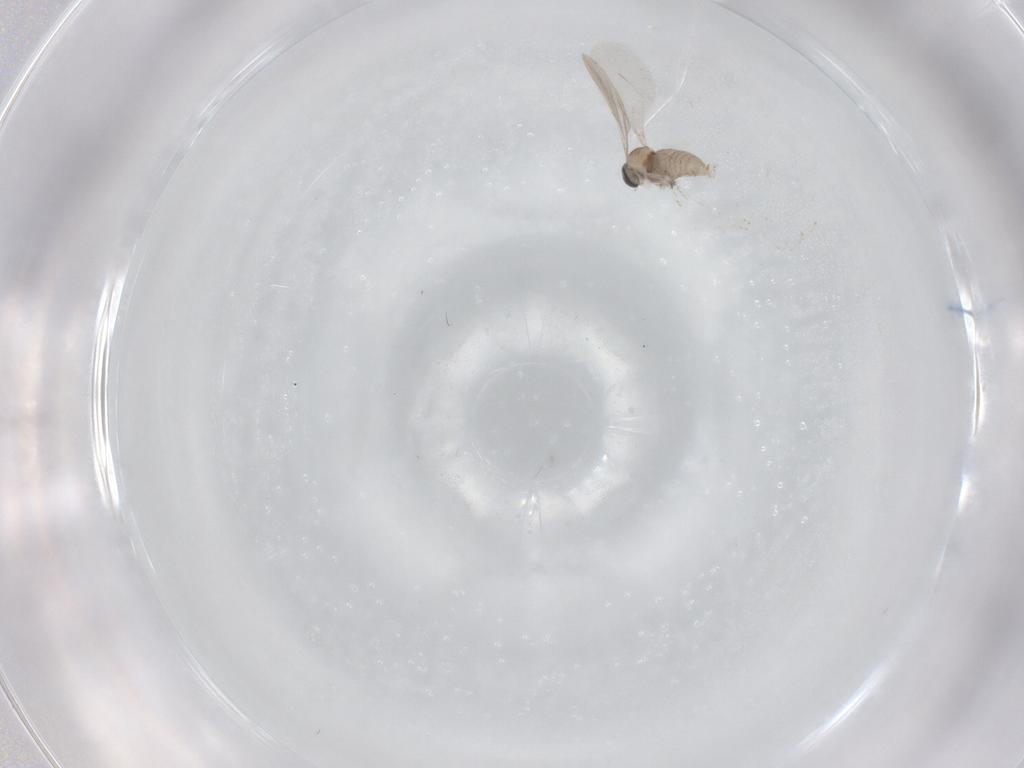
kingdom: Animalia
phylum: Arthropoda
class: Insecta
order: Diptera
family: Cecidomyiidae
